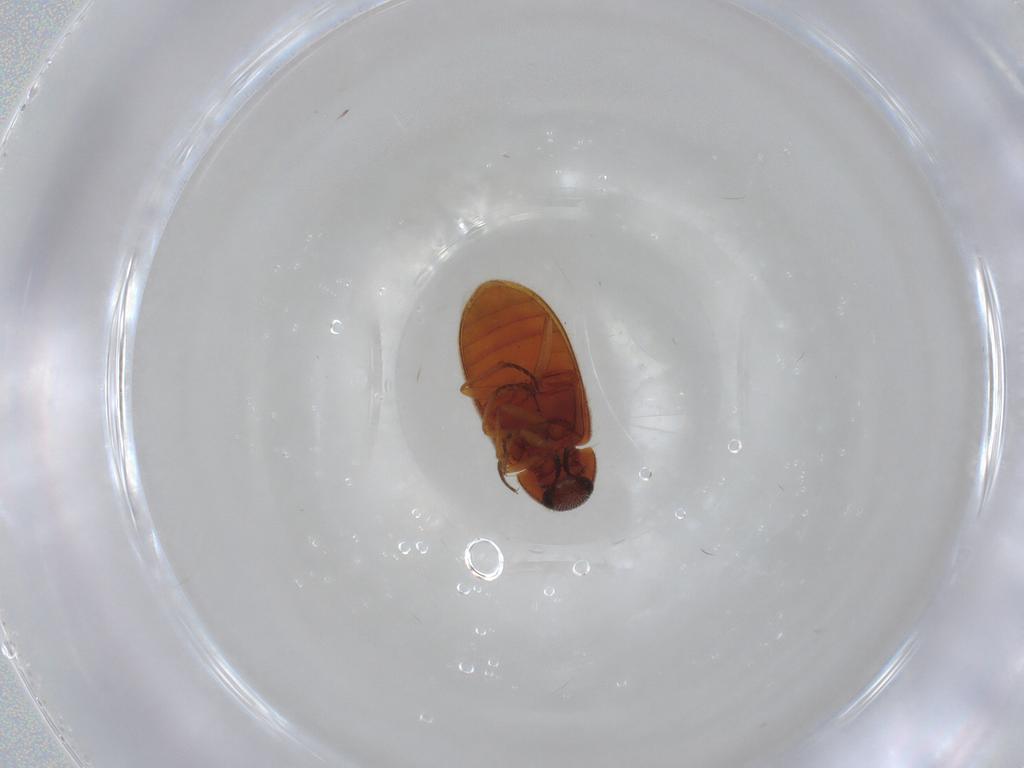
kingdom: Animalia
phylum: Arthropoda
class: Insecta
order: Coleoptera
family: Rhadalidae
